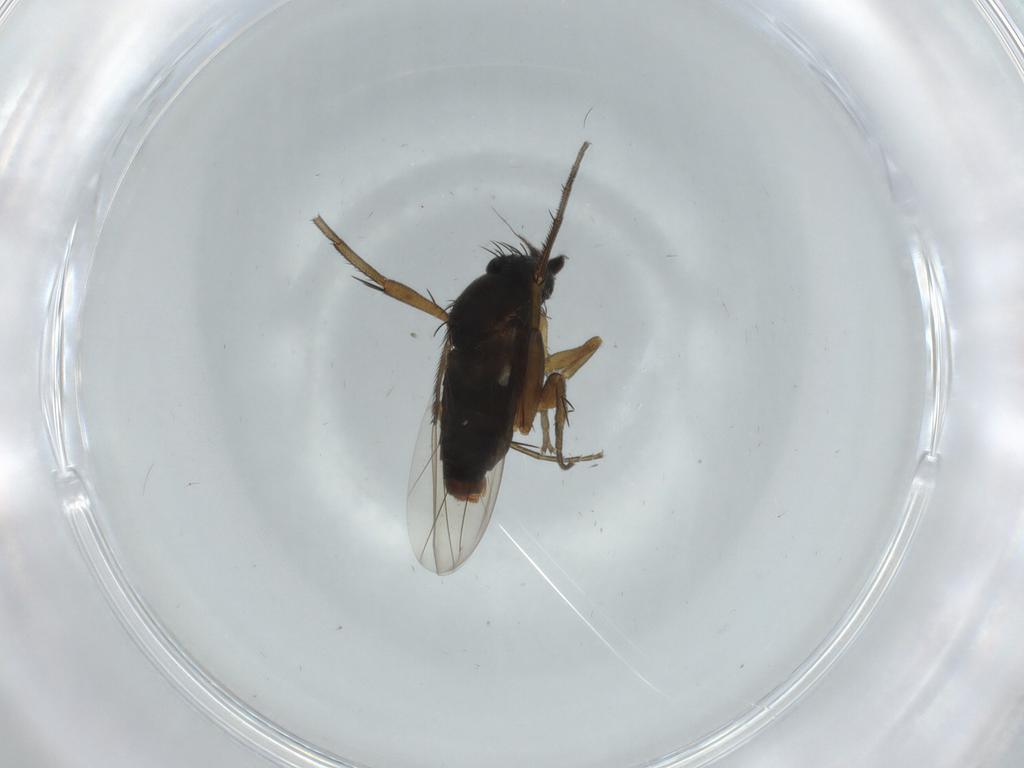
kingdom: Animalia
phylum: Arthropoda
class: Insecta
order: Diptera
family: Phoridae
